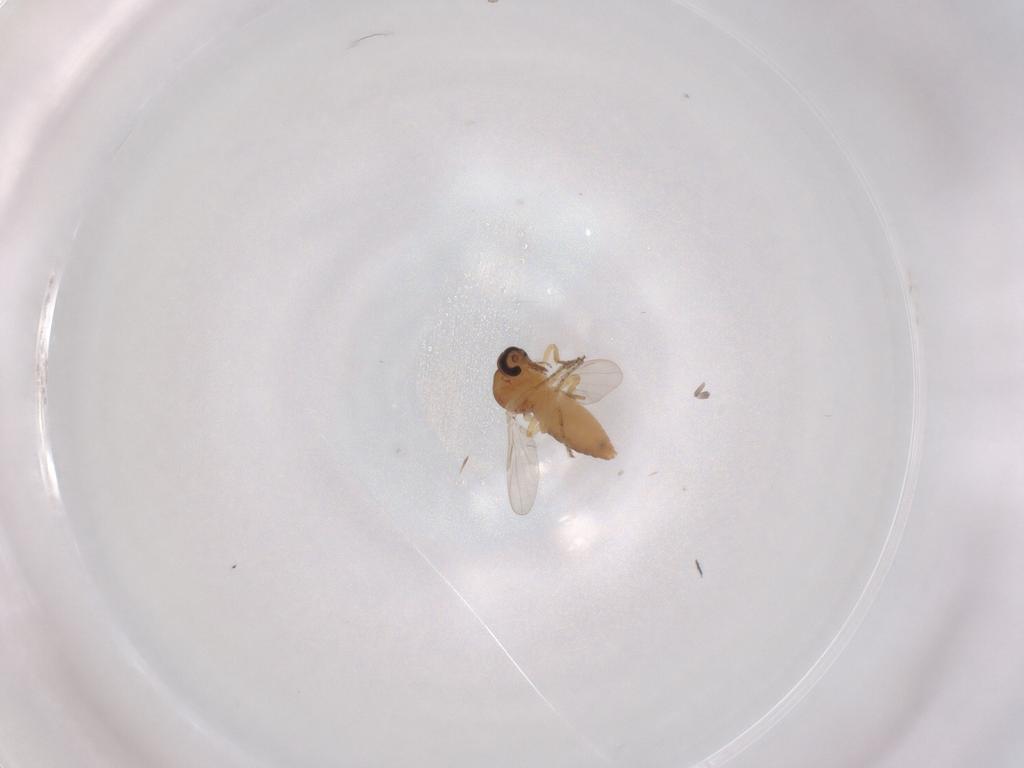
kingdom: Animalia
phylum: Arthropoda
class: Insecta
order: Diptera
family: Ceratopogonidae
